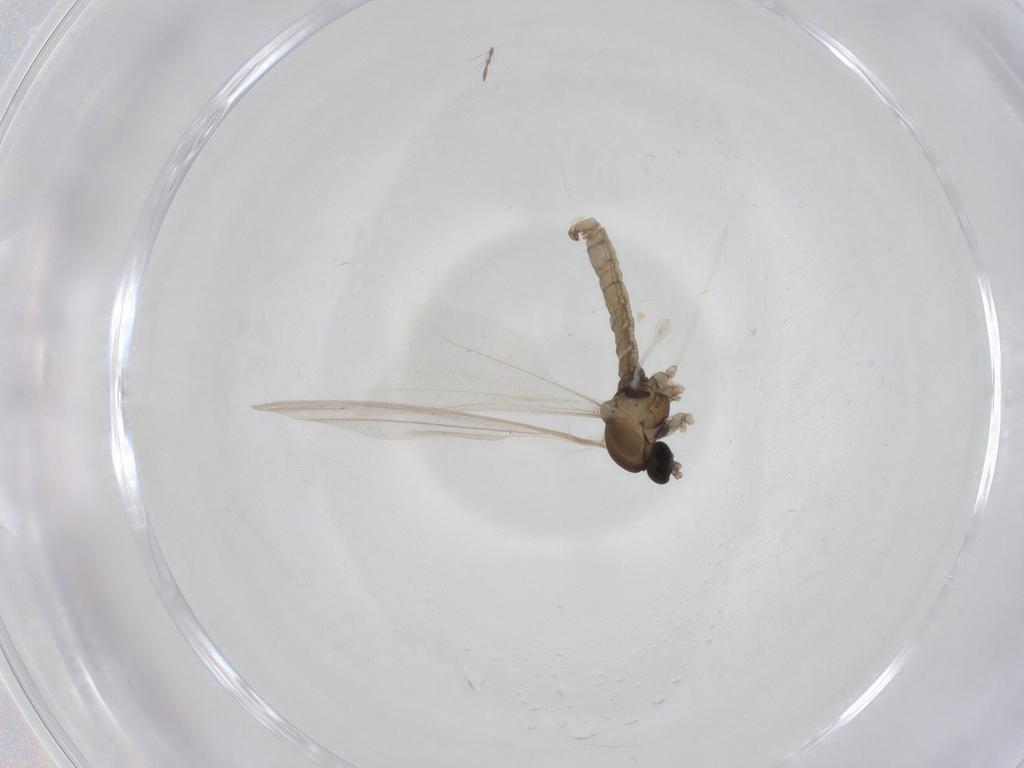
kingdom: Animalia
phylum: Arthropoda
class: Insecta
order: Diptera
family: Cecidomyiidae
